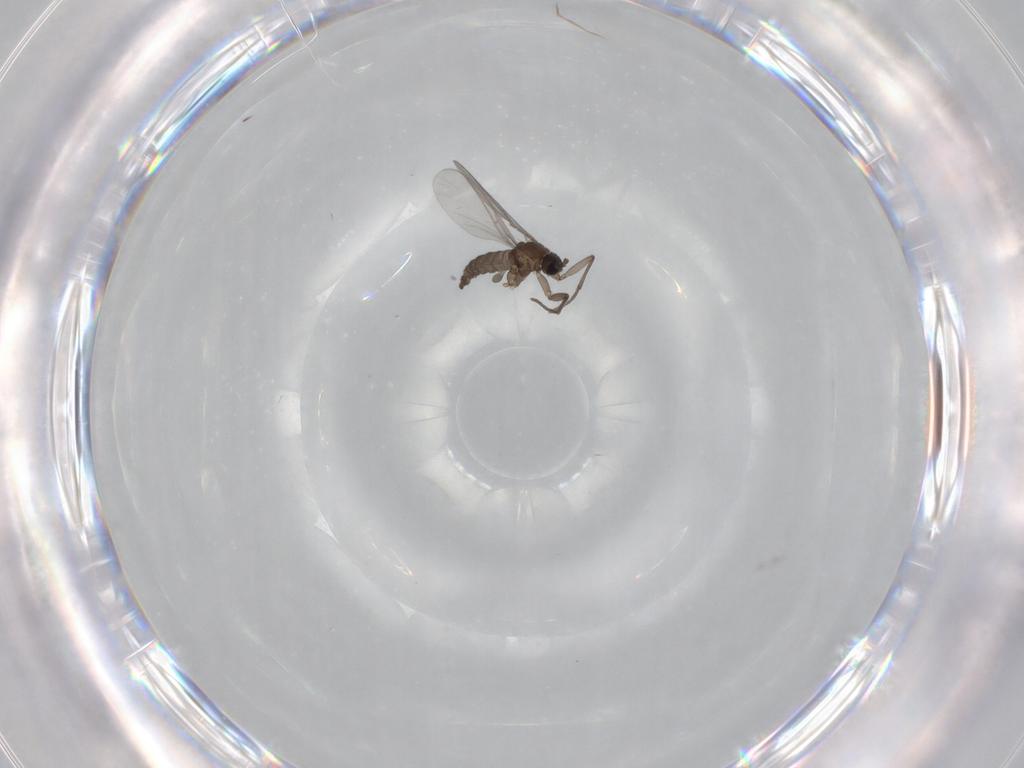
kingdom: Animalia
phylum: Arthropoda
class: Insecta
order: Diptera
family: Sciaridae
